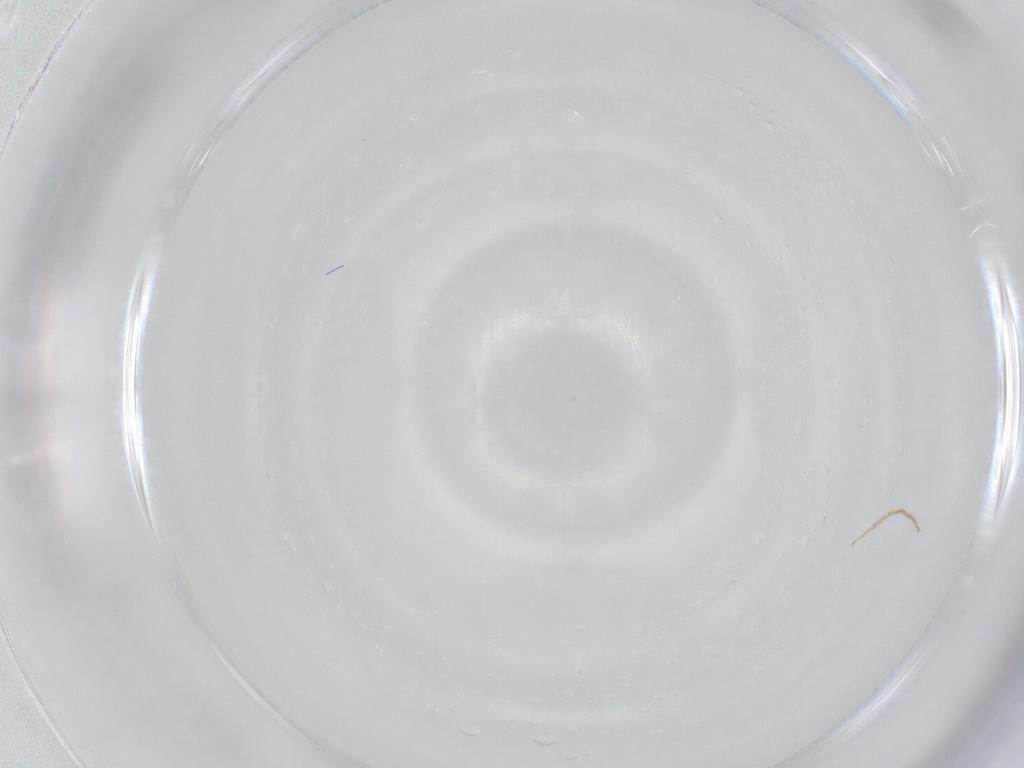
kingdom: Animalia
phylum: Arthropoda
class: Insecta
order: Diptera
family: Chironomidae
